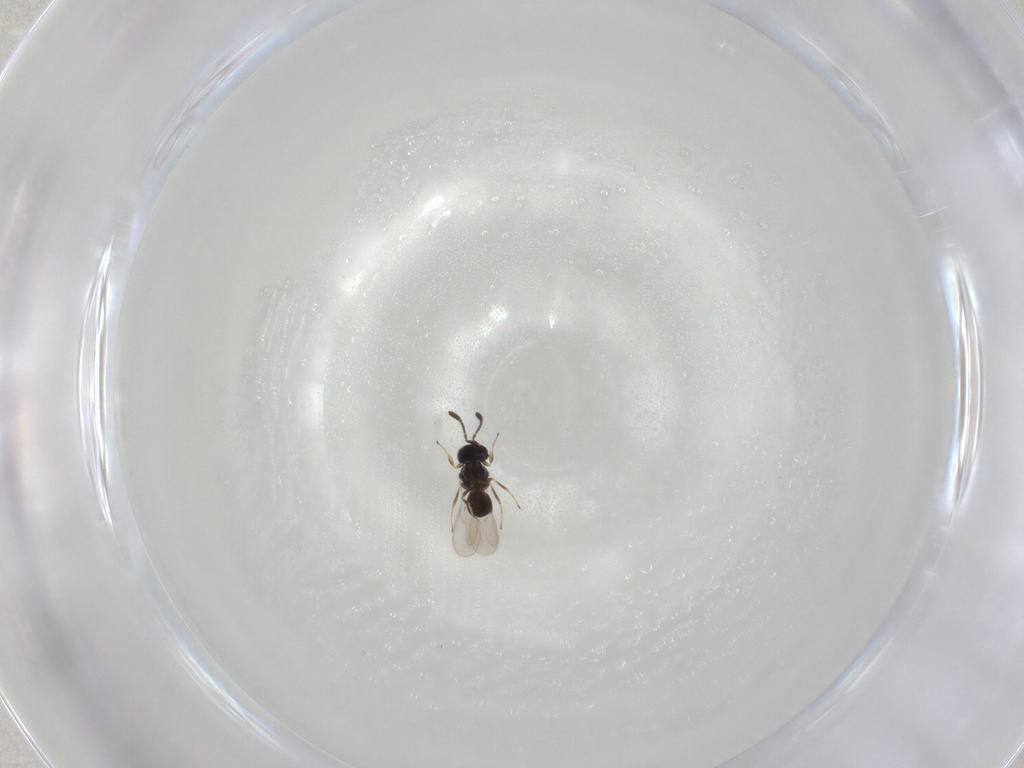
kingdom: Animalia
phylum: Arthropoda
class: Insecta
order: Hymenoptera
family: Scelionidae
